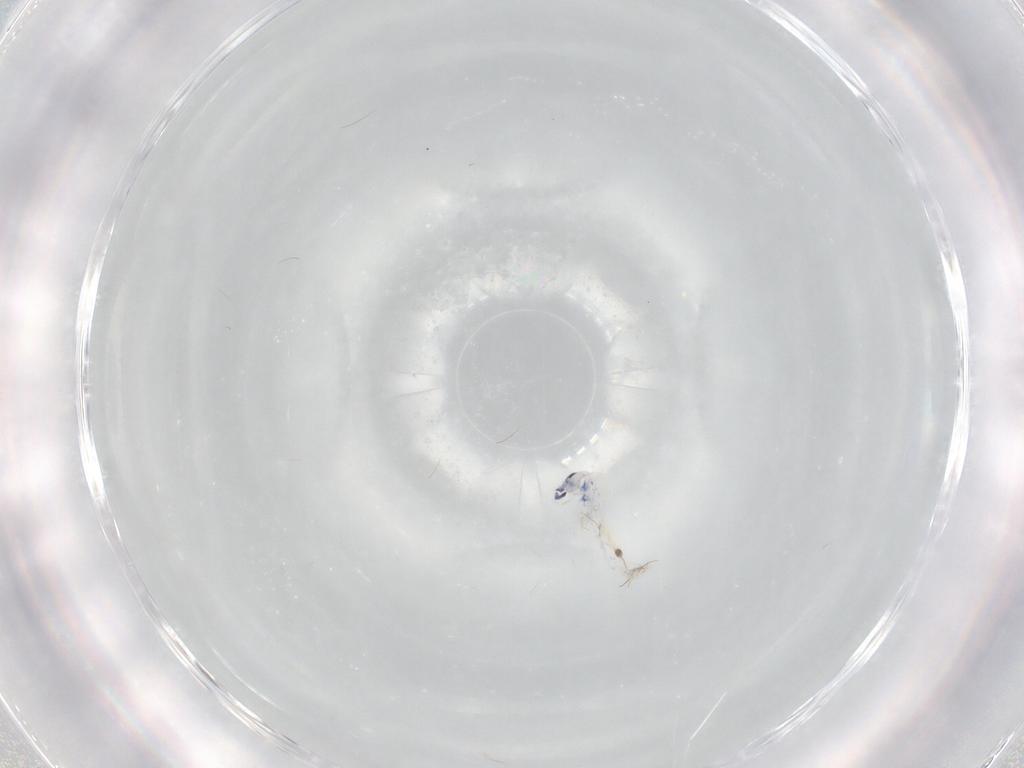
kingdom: Animalia
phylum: Arthropoda
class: Collembola
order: Entomobryomorpha
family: Entomobryidae
